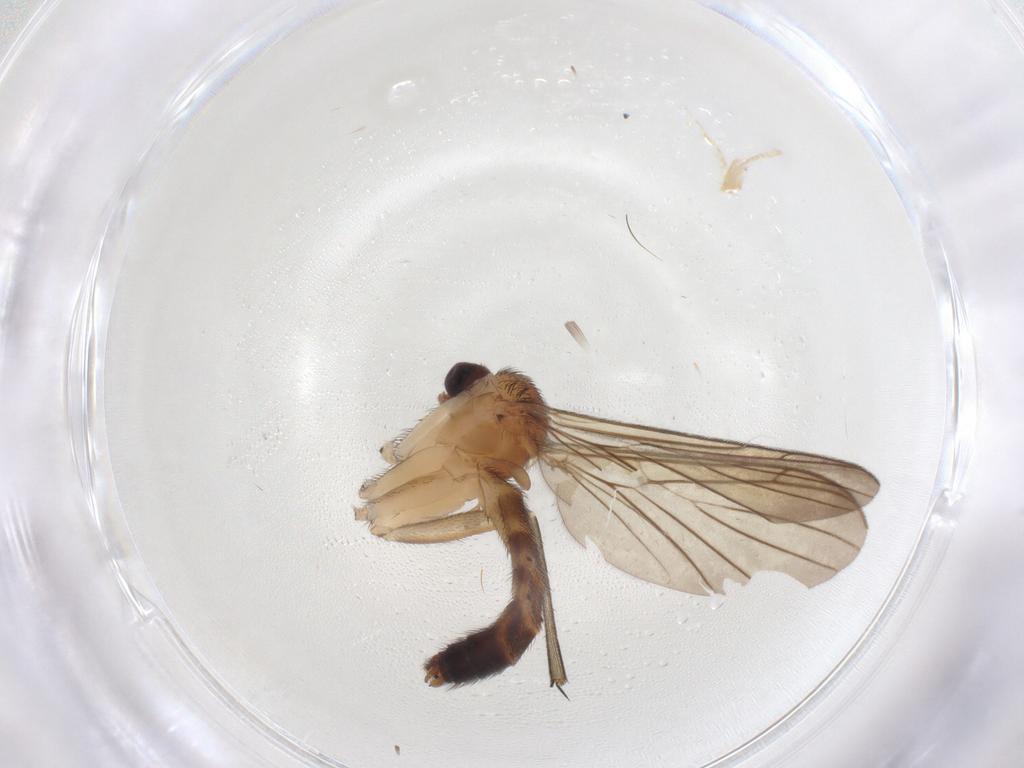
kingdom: Animalia
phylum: Arthropoda
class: Insecta
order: Diptera
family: Keroplatidae
